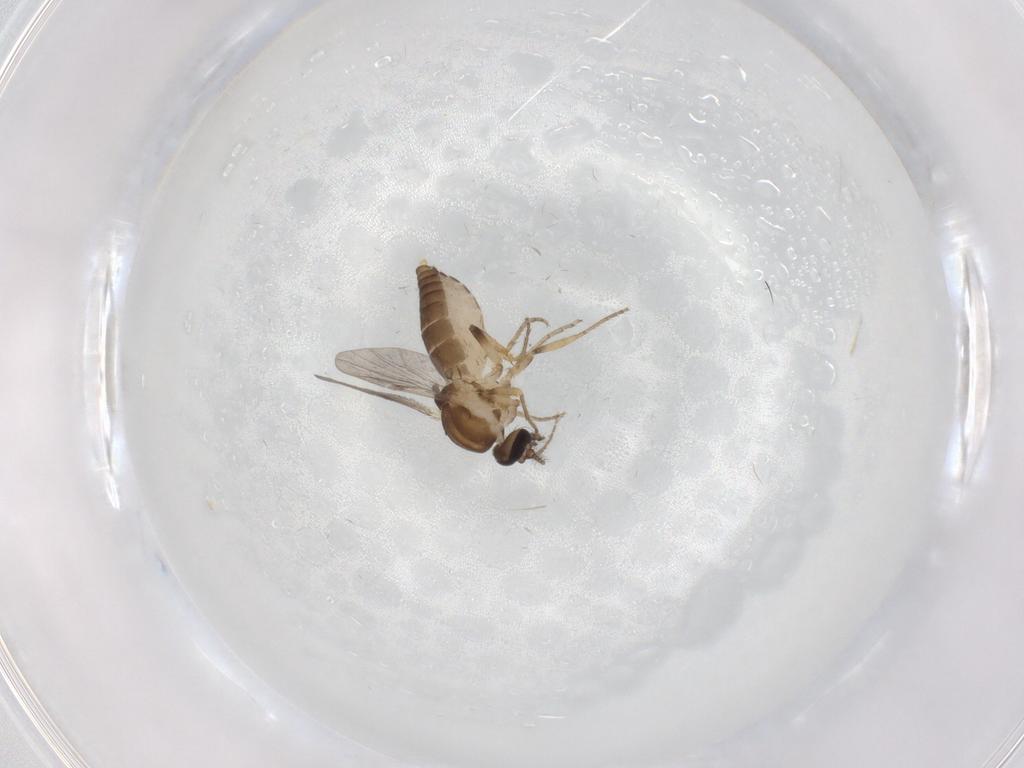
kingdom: Animalia
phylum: Arthropoda
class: Insecta
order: Diptera
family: Ceratopogonidae
